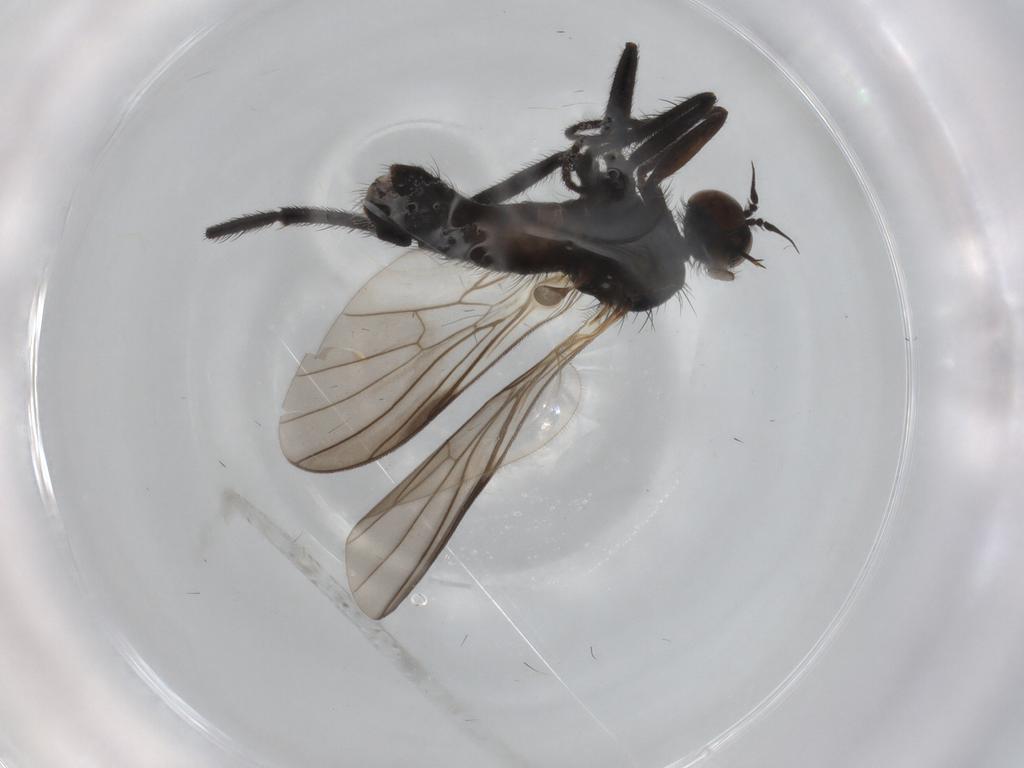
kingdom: Animalia
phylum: Arthropoda
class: Insecta
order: Diptera
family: Empididae
